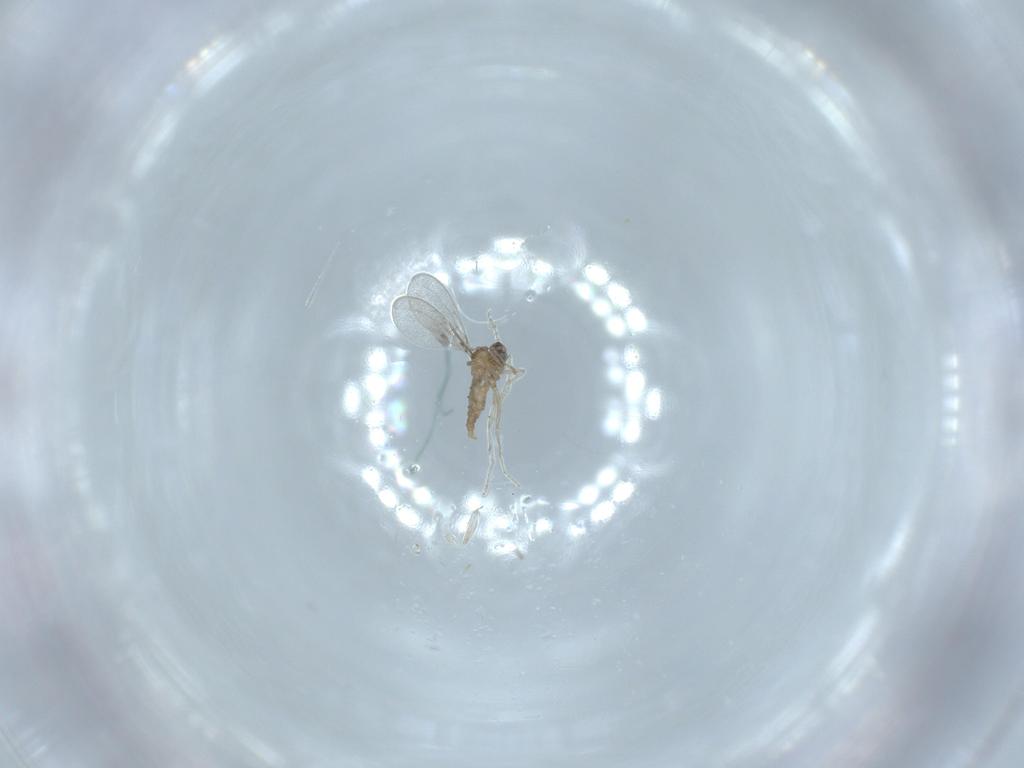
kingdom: Animalia
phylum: Arthropoda
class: Insecta
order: Diptera
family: Cecidomyiidae
